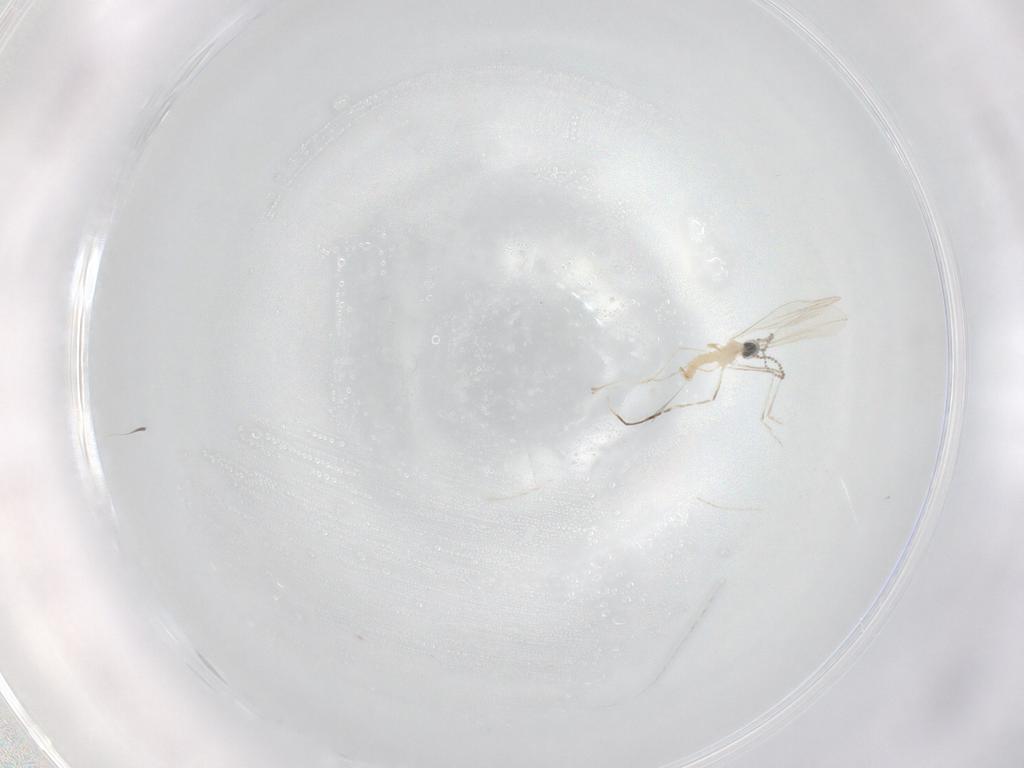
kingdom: Animalia
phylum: Arthropoda
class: Insecta
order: Diptera
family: Cecidomyiidae
